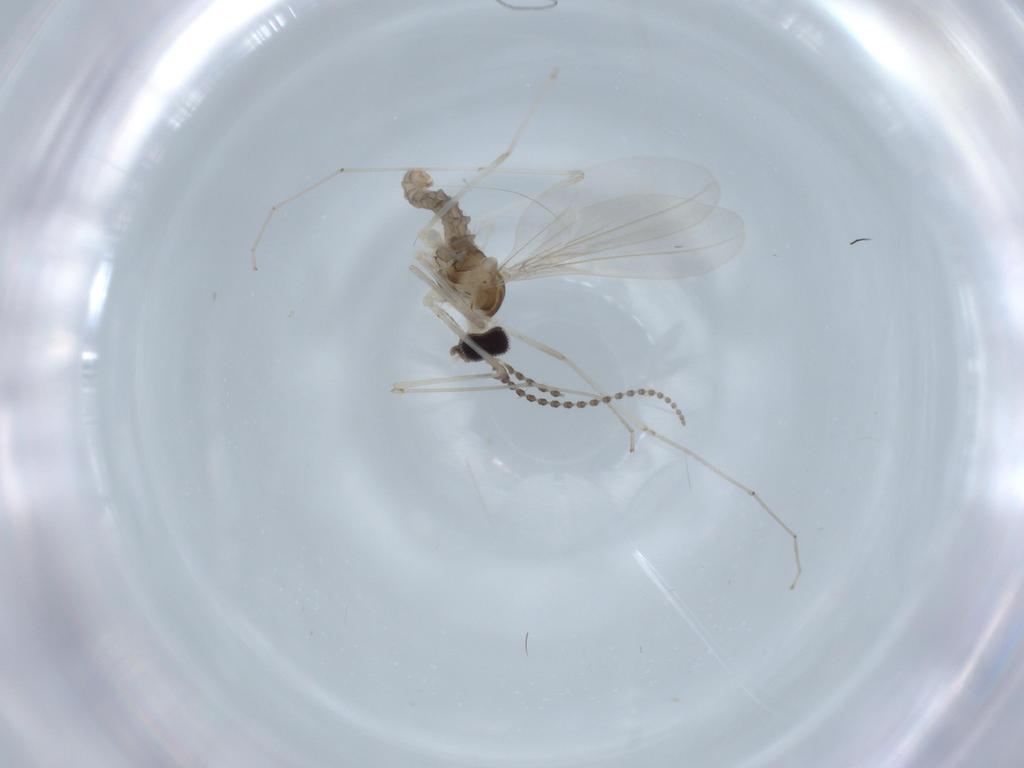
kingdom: Animalia
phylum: Arthropoda
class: Insecta
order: Diptera
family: Cecidomyiidae
